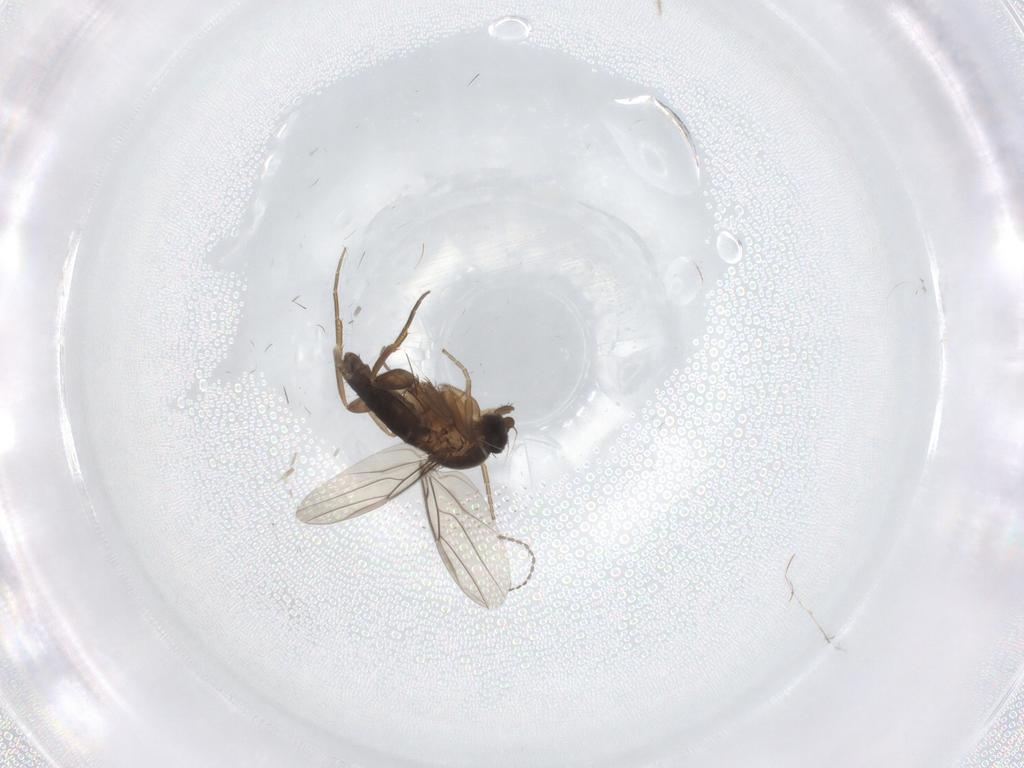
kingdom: Animalia
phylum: Arthropoda
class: Insecta
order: Diptera
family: Phoridae
